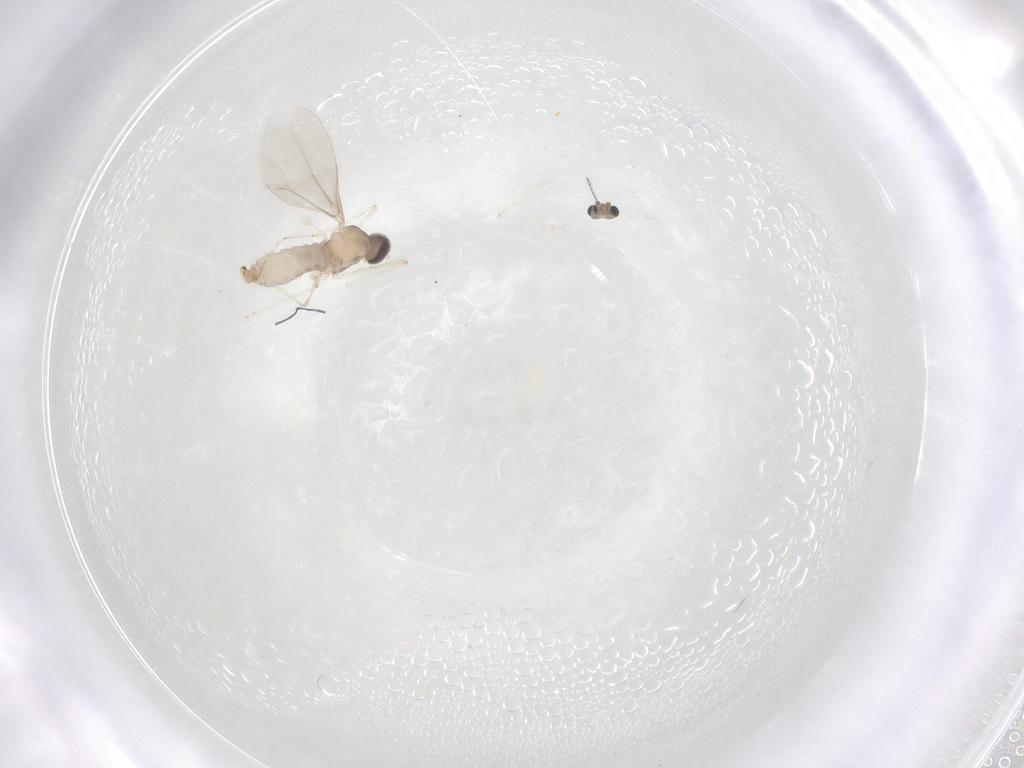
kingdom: Animalia
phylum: Arthropoda
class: Insecta
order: Diptera
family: Cecidomyiidae
